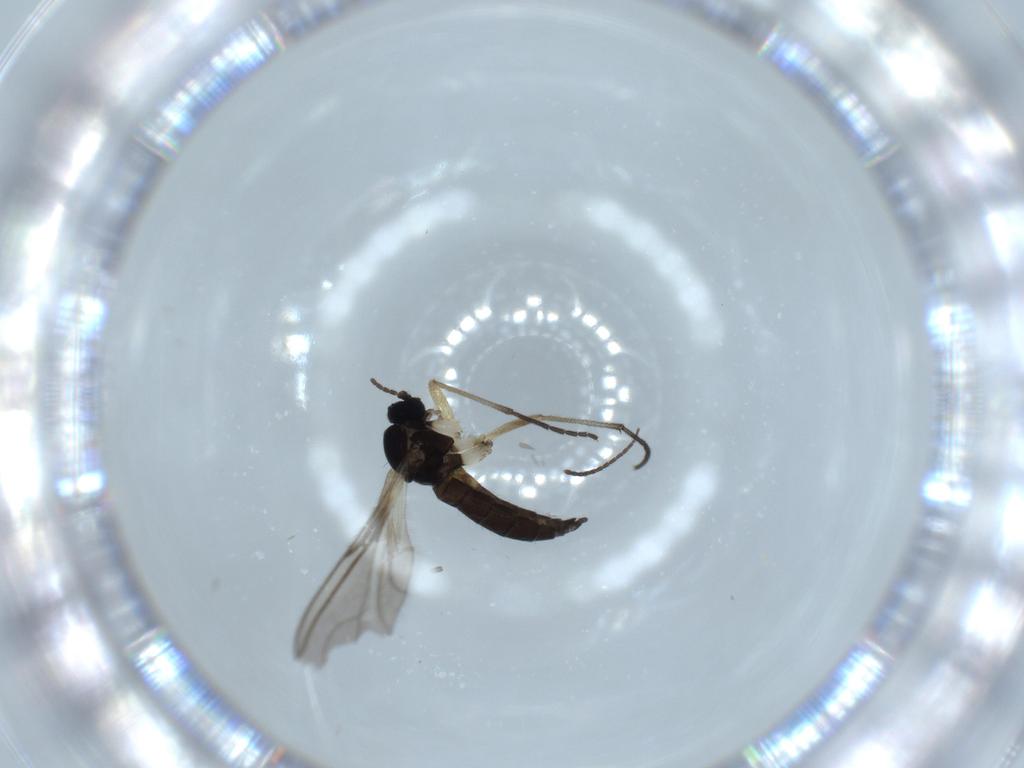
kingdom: Animalia
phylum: Arthropoda
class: Insecta
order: Diptera
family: Sciaridae
